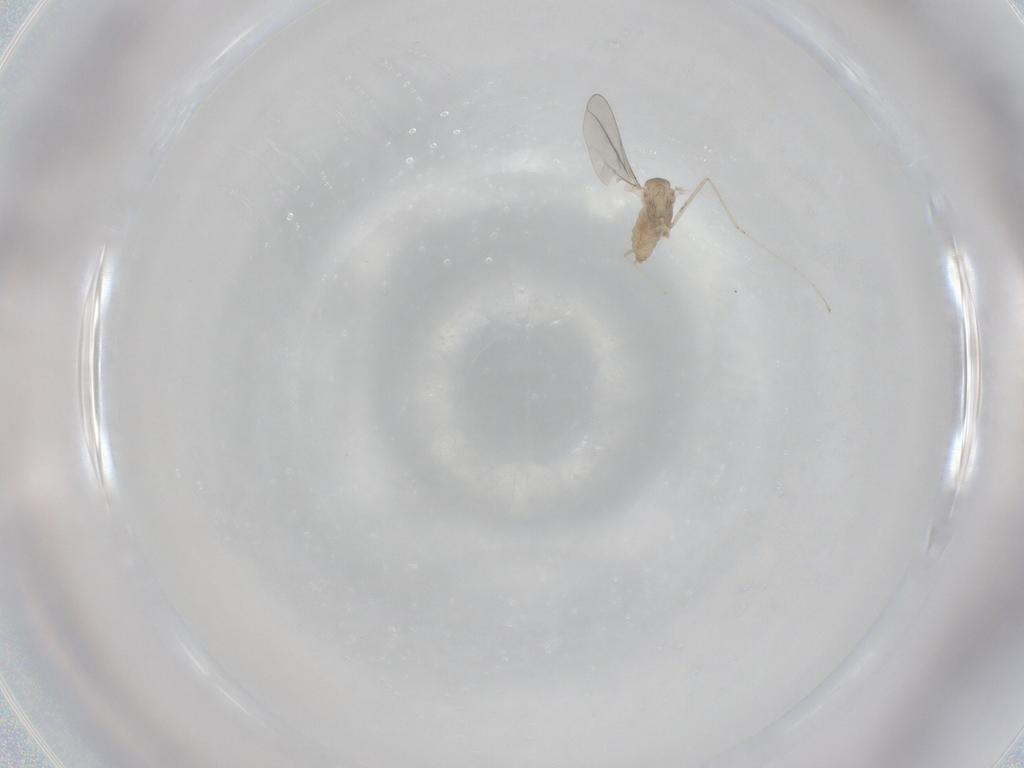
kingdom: Animalia
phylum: Arthropoda
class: Insecta
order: Diptera
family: Cecidomyiidae
